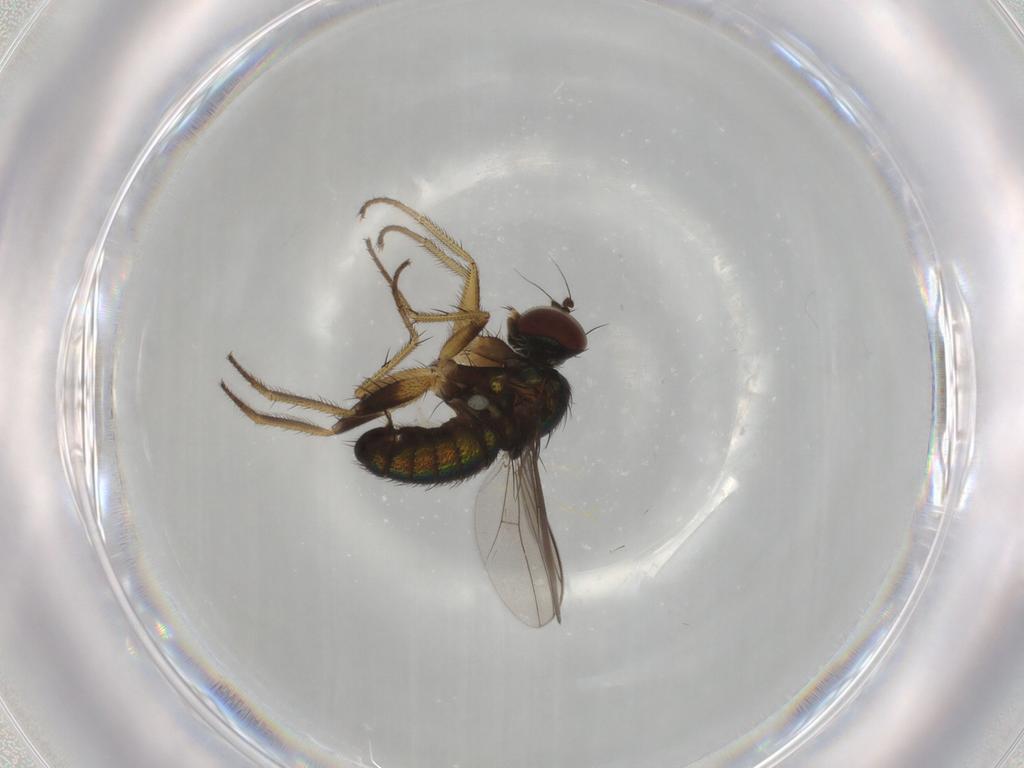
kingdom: Animalia
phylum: Arthropoda
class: Insecta
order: Diptera
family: Dolichopodidae
